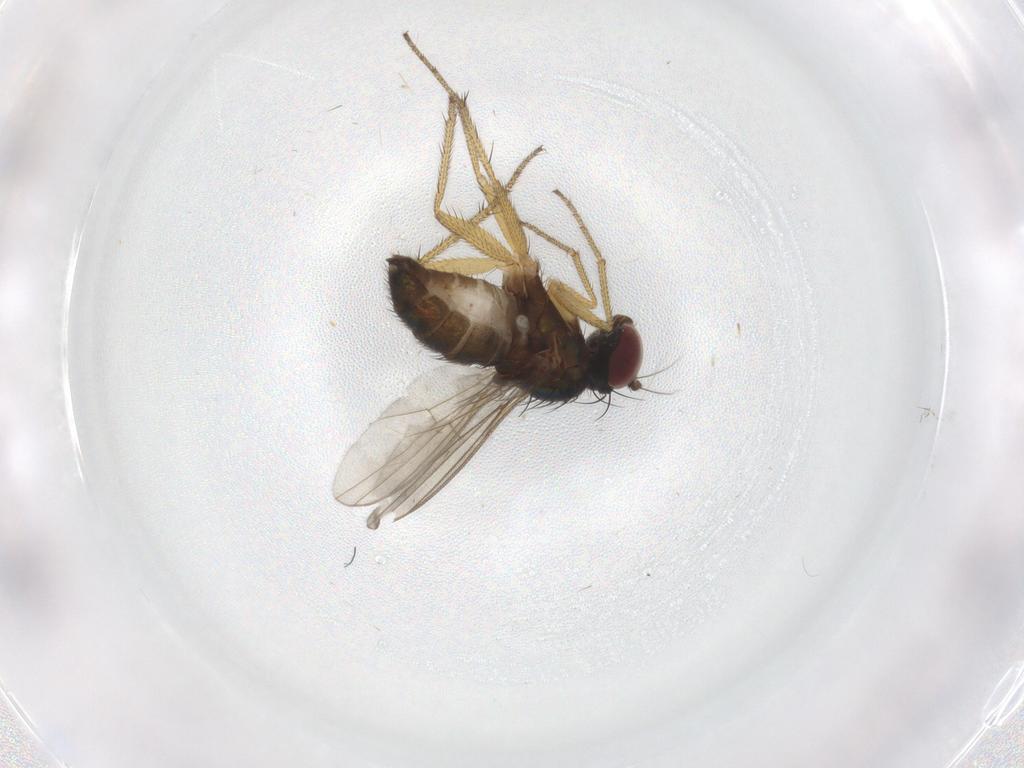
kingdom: Animalia
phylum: Arthropoda
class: Insecta
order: Diptera
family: Dolichopodidae
